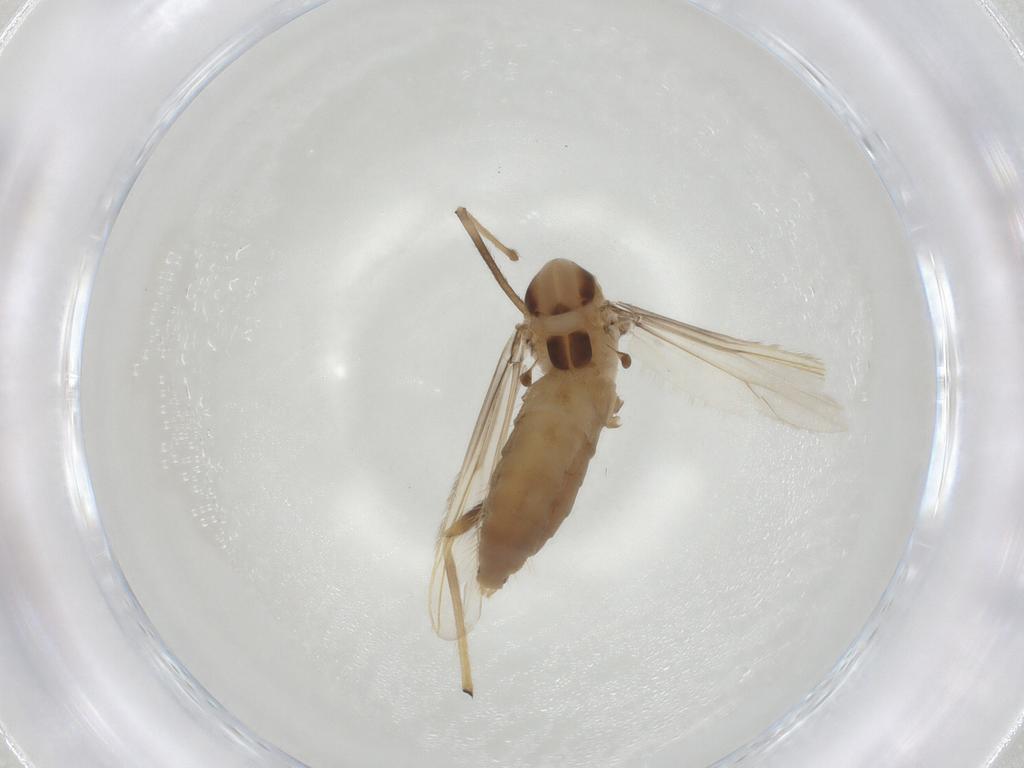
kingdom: Animalia
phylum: Arthropoda
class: Insecta
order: Diptera
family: Chironomidae
